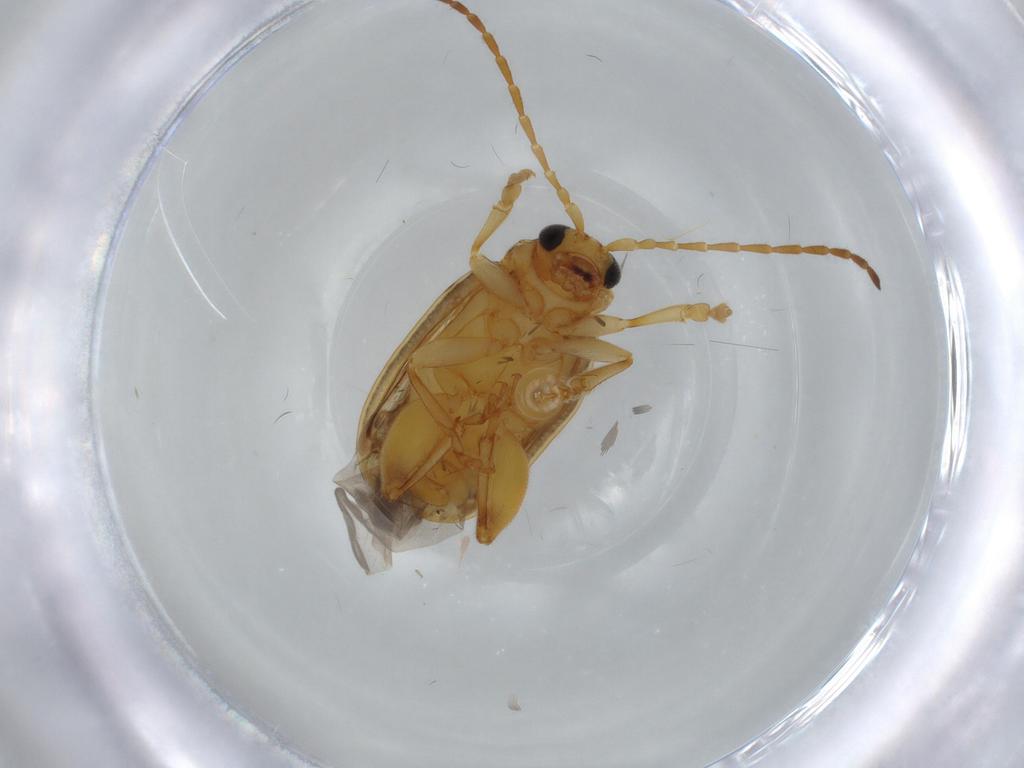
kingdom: Animalia
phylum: Arthropoda
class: Insecta
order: Coleoptera
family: Chrysomelidae
